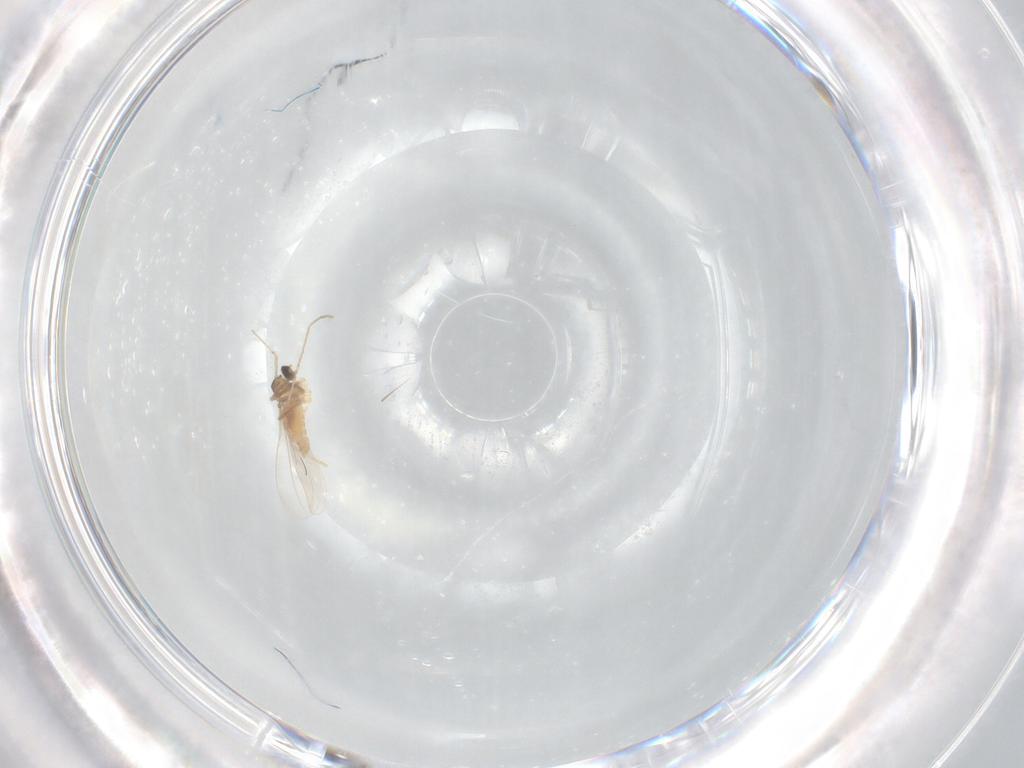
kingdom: Animalia
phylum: Arthropoda
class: Insecta
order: Diptera
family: Cecidomyiidae
